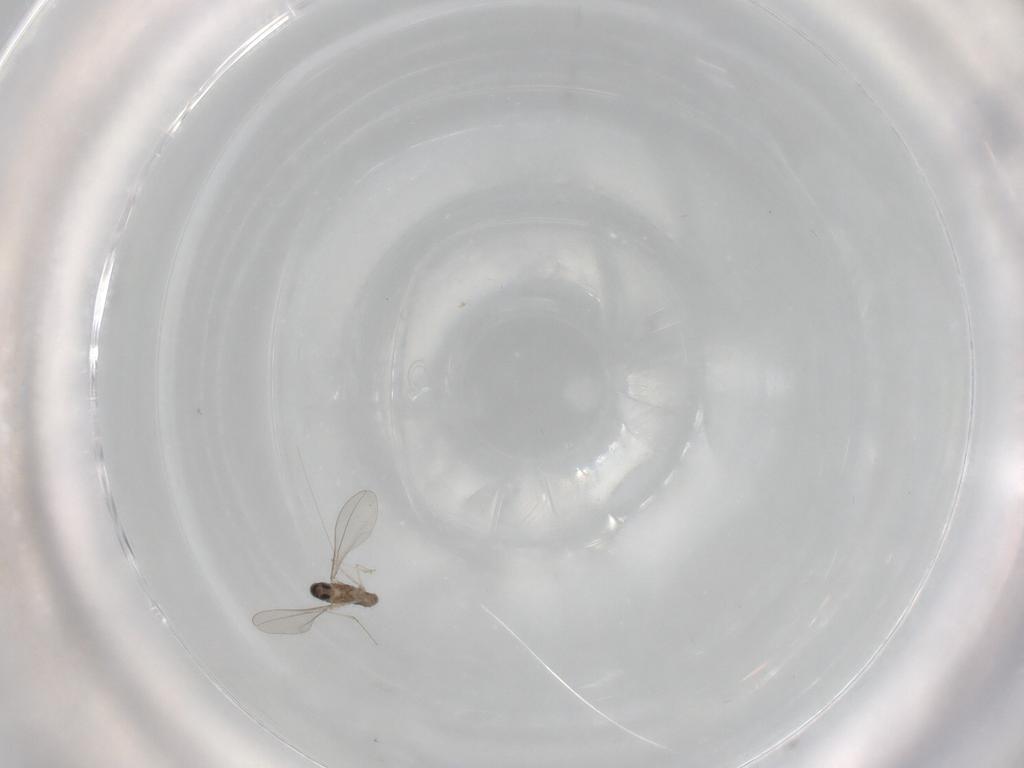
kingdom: Animalia
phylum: Arthropoda
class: Insecta
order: Diptera
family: Cecidomyiidae
